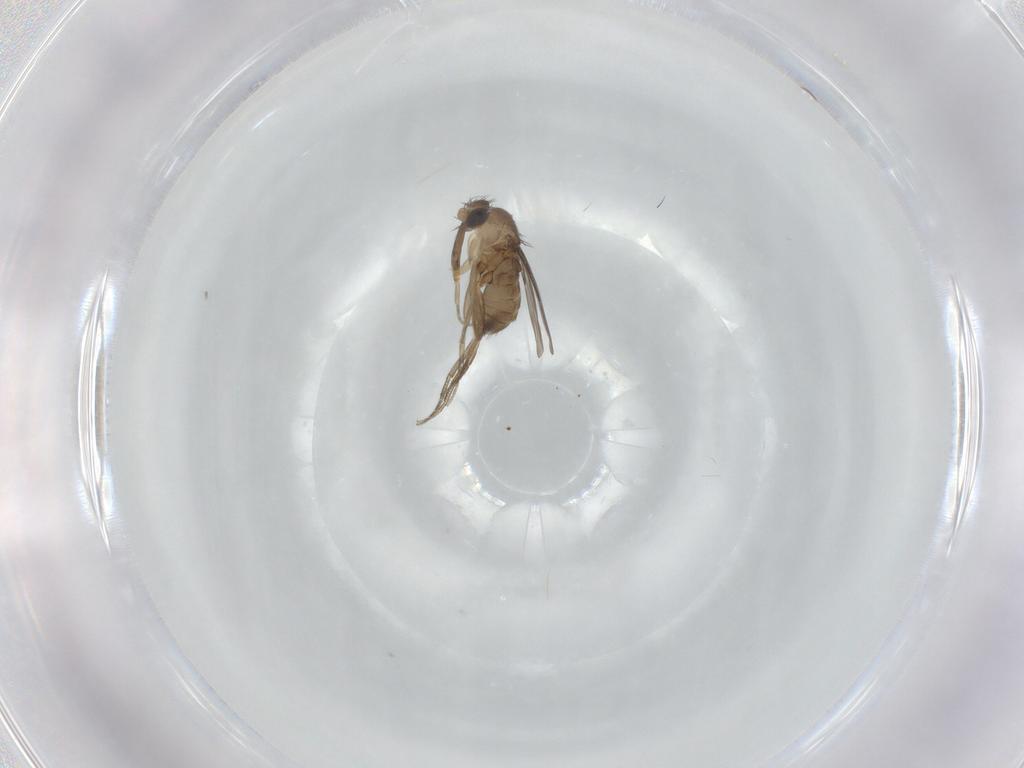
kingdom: Animalia
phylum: Arthropoda
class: Insecta
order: Diptera
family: Phoridae
